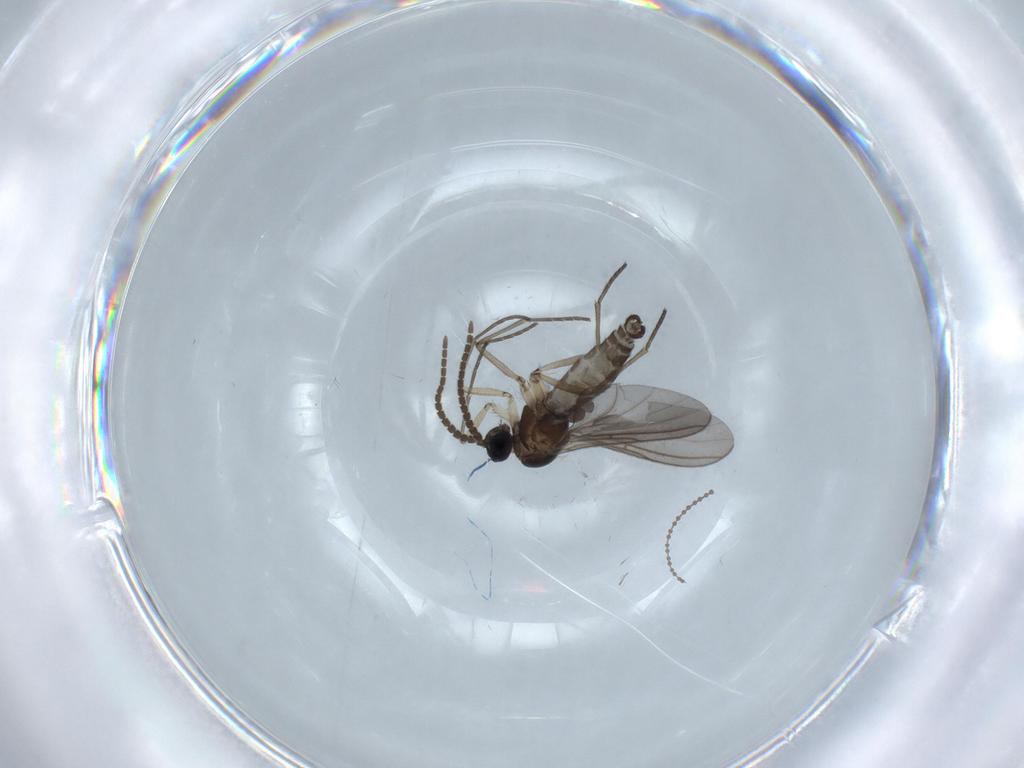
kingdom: Animalia
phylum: Arthropoda
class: Insecta
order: Diptera
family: Sciaridae
